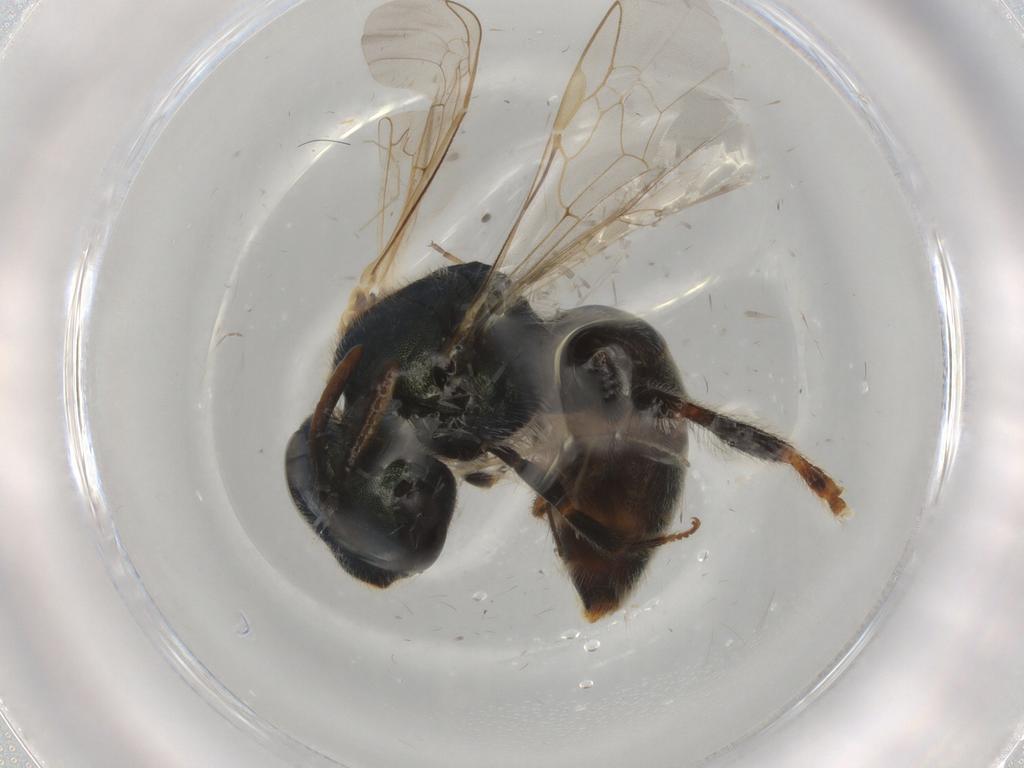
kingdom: Animalia
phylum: Arthropoda
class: Insecta
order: Hymenoptera
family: Halictidae
